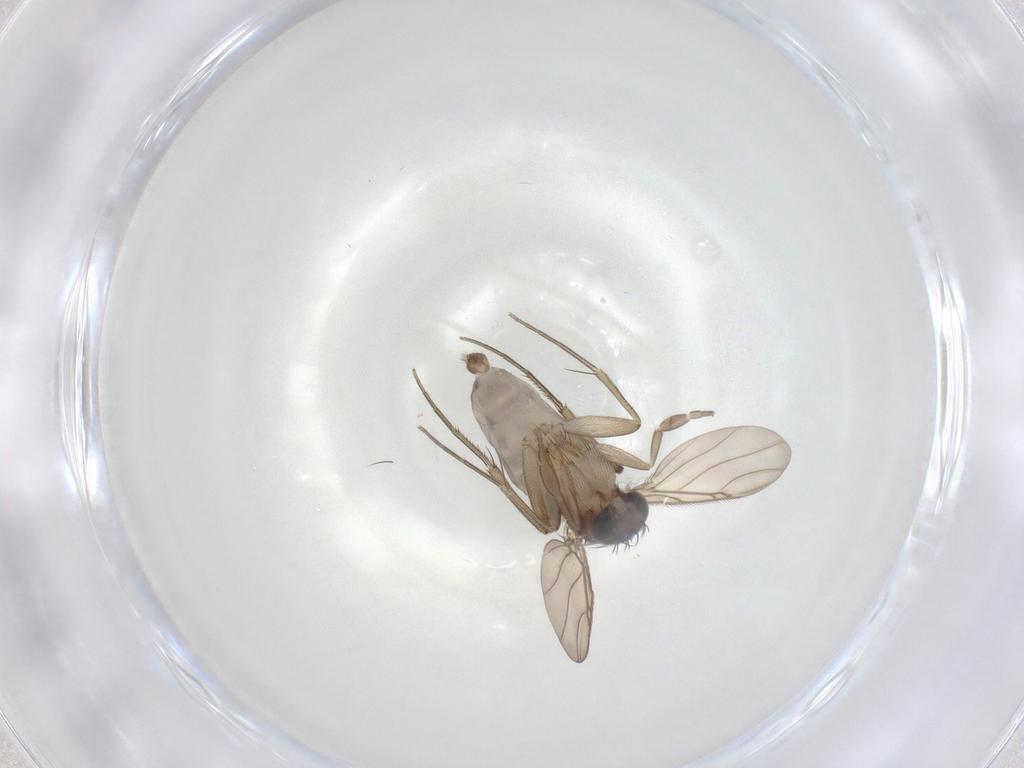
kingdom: Animalia
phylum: Arthropoda
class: Insecta
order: Diptera
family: Phoridae
